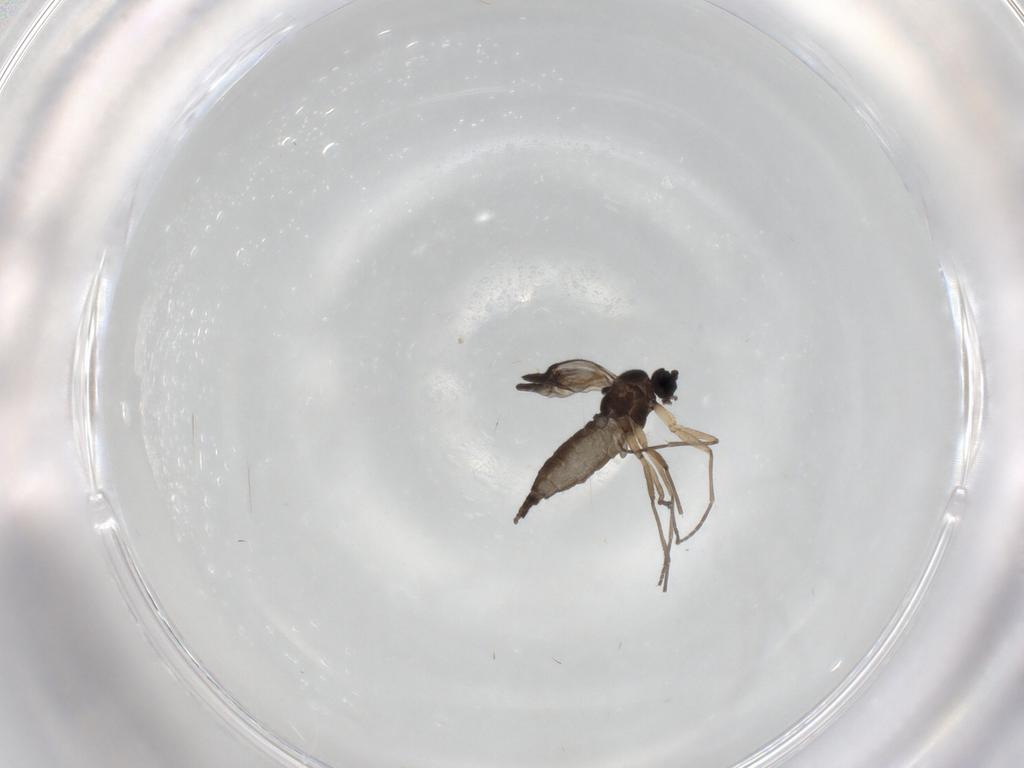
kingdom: Animalia
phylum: Arthropoda
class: Insecta
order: Diptera
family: Sciaridae
